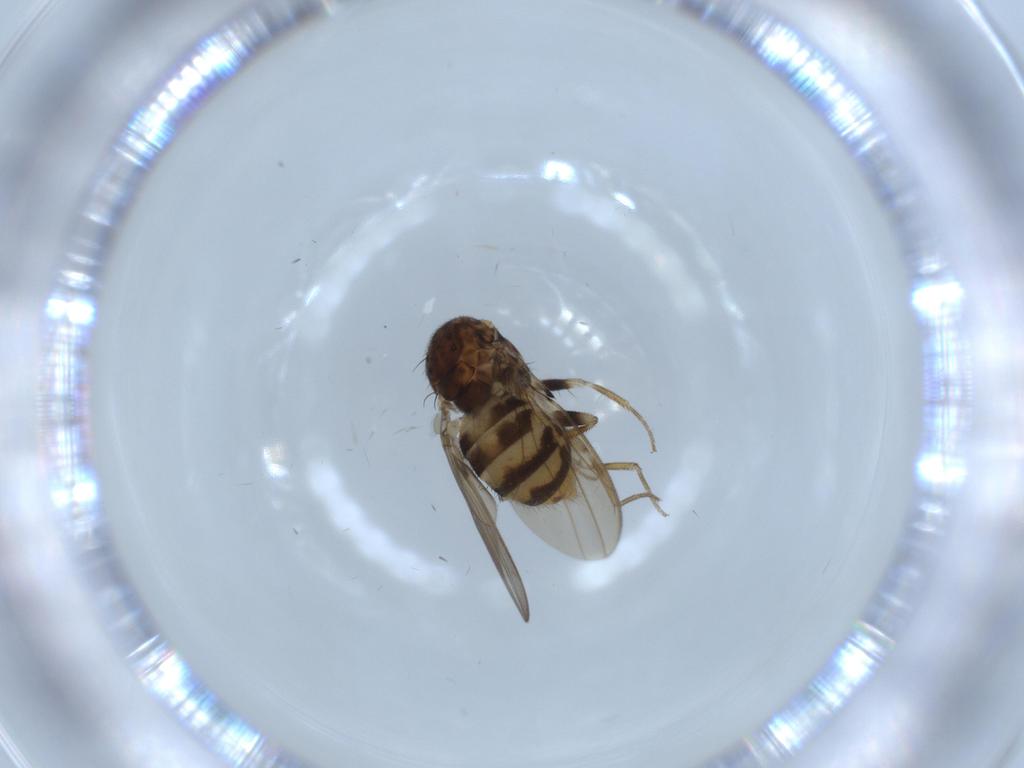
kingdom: Animalia
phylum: Arthropoda
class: Insecta
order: Diptera
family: Drosophilidae
